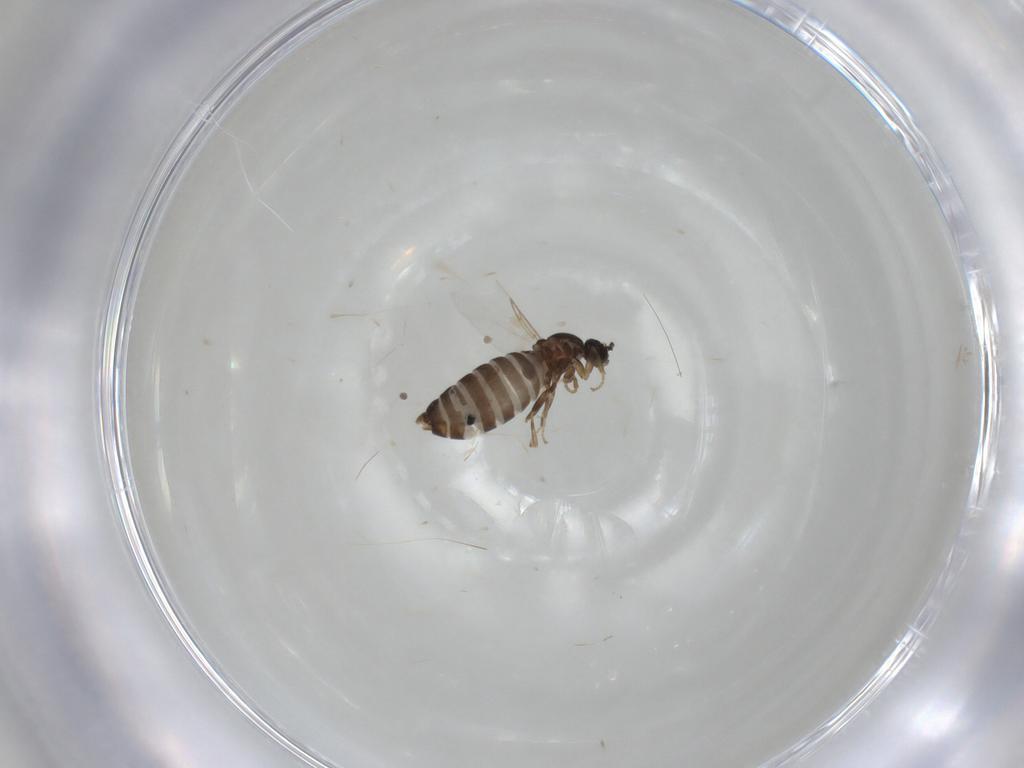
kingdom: Animalia
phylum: Arthropoda
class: Insecta
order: Diptera
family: Scatopsidae
